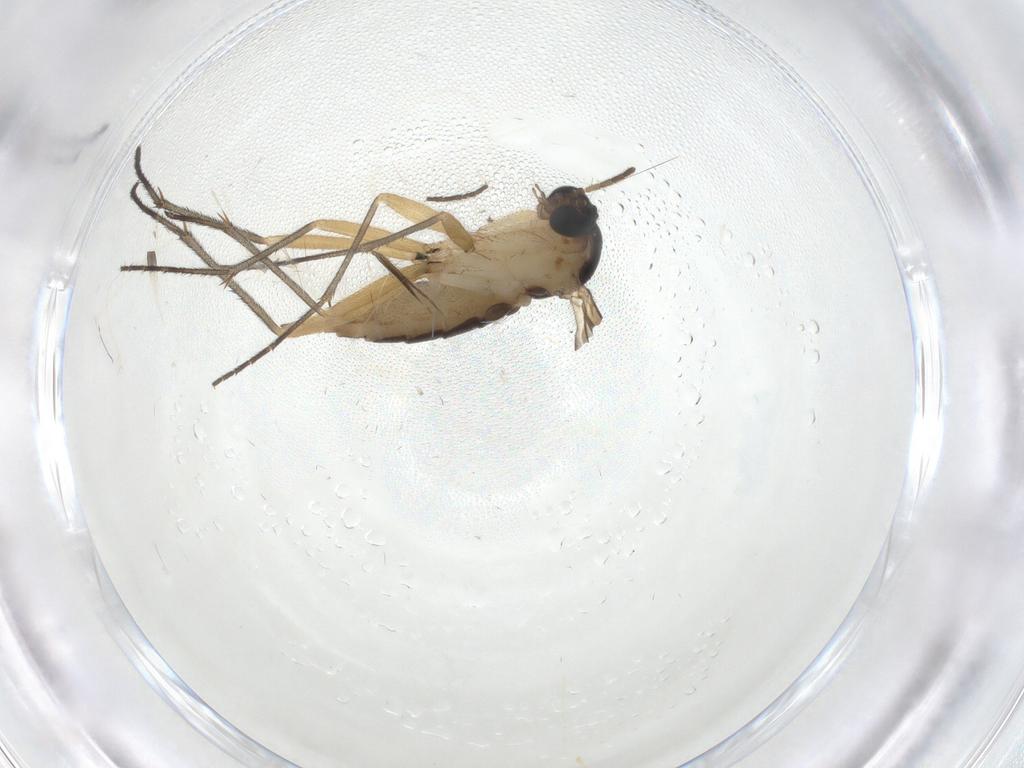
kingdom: Animalia
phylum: Arthropoda
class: Insecta
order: Diptera
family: Sciaridae
